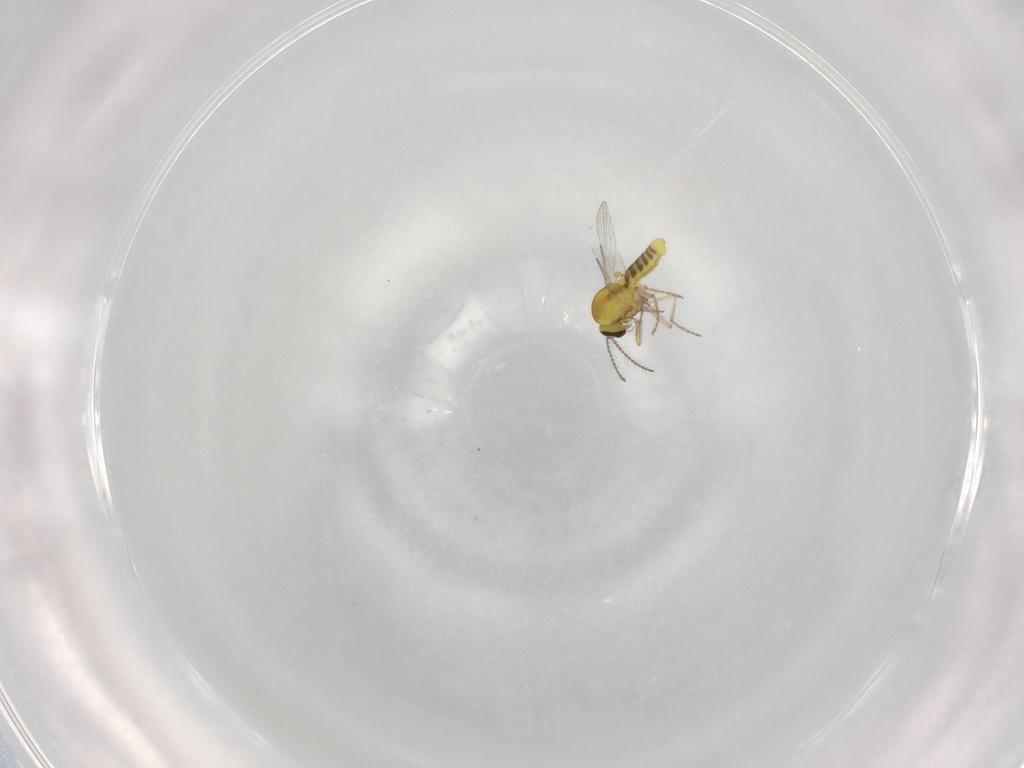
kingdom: Animalia
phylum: Arthropoda
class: Insecta
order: Diptera
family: Ceratopogonidae
